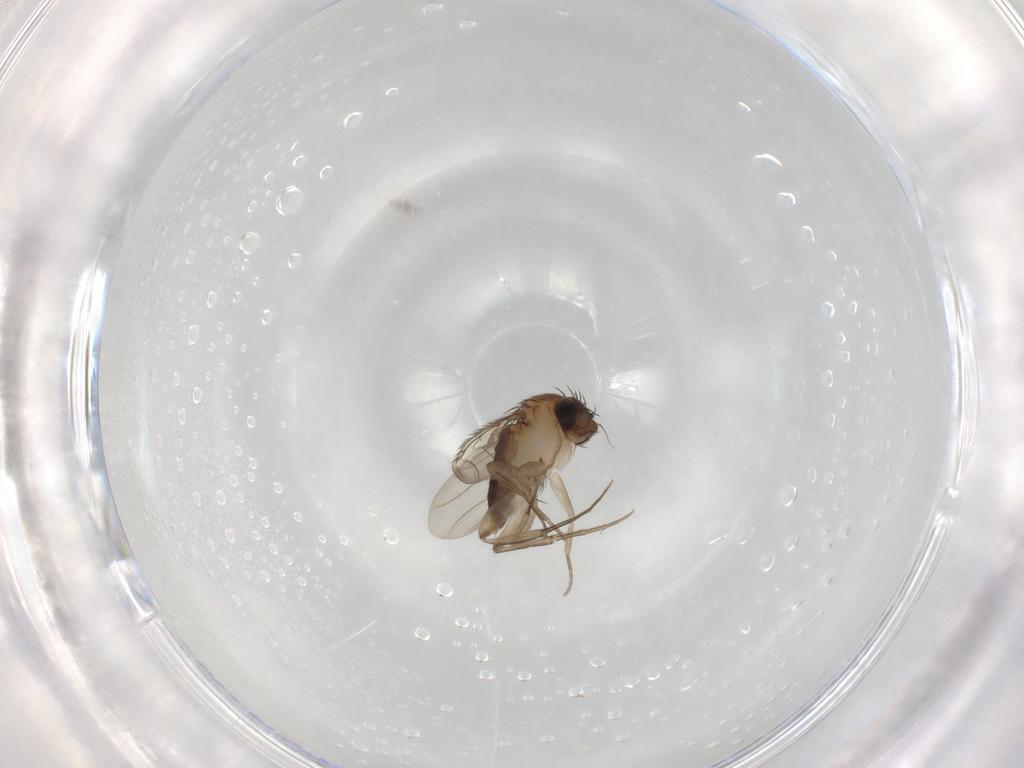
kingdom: Animalia
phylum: Arthropoda
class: Insecta
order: Diptera
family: Phoridae
